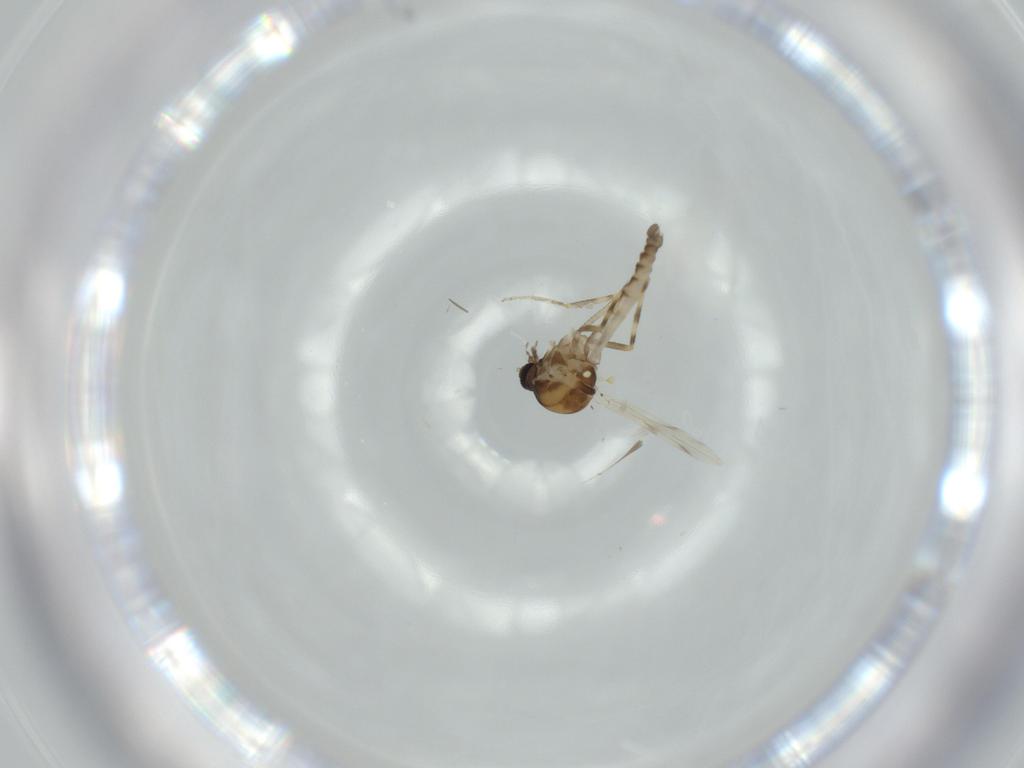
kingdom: Animalia
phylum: Arthropoda
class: Insecta
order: Diptera
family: Ceratopogonidae
